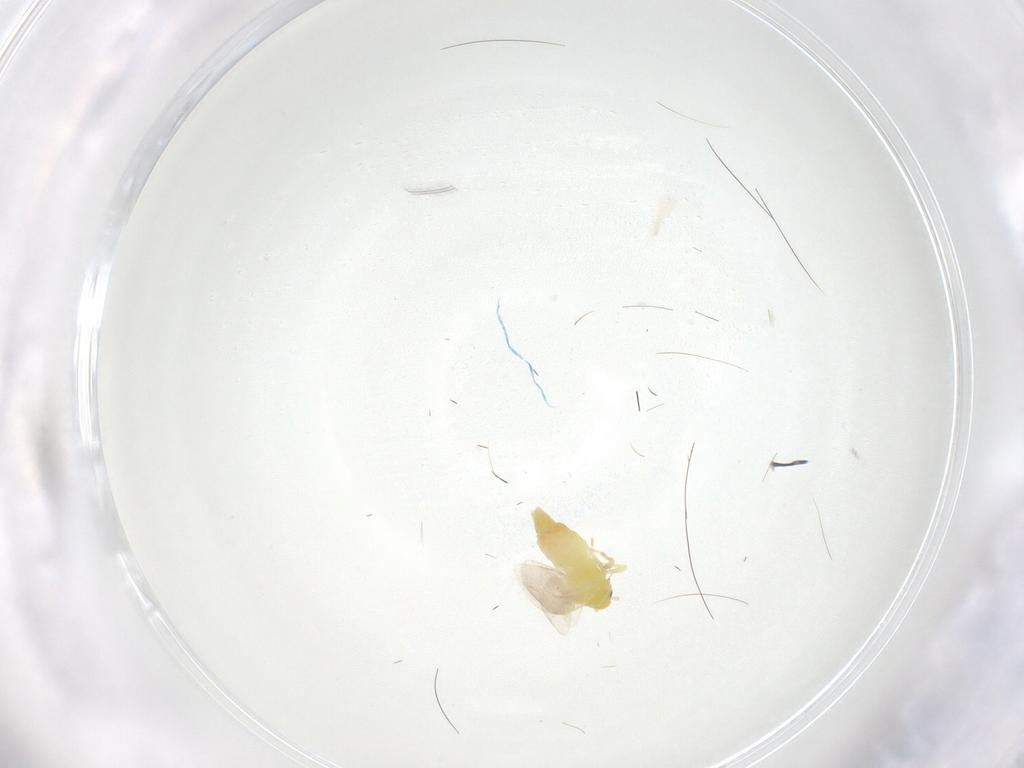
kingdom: Animalia
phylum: Arthropoda
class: Insecta
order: Hemiptera
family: Aleyrodidae
